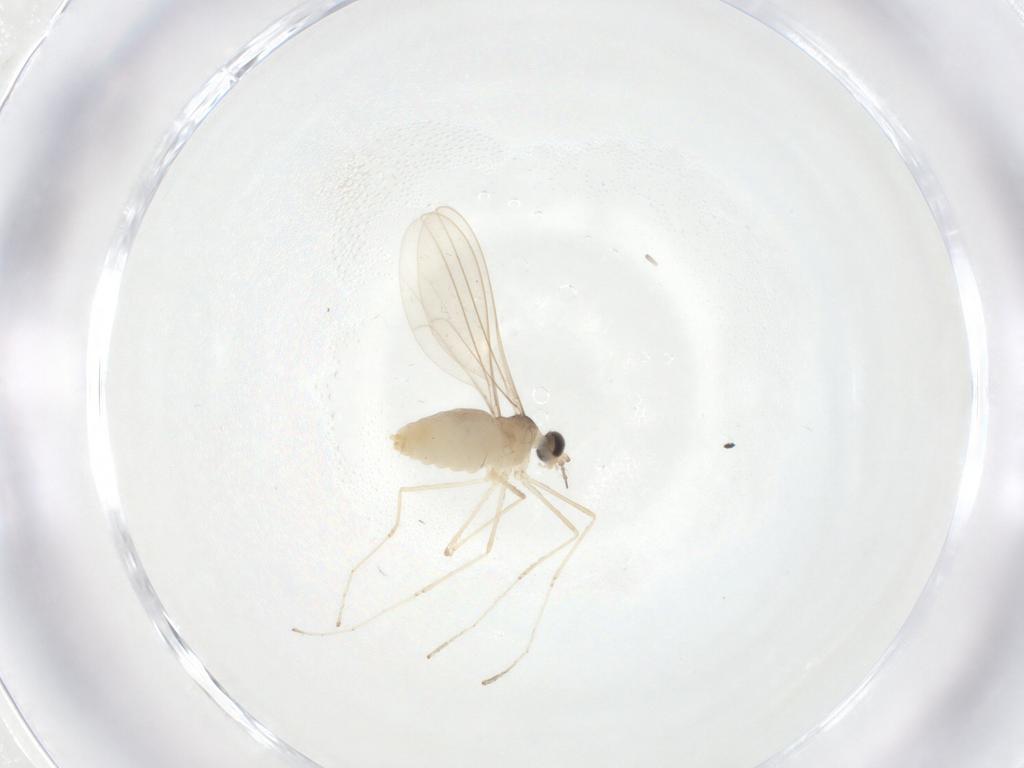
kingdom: Animalia
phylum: Arthropoda
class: Insecta
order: Diptera
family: Cecidomyiidae
